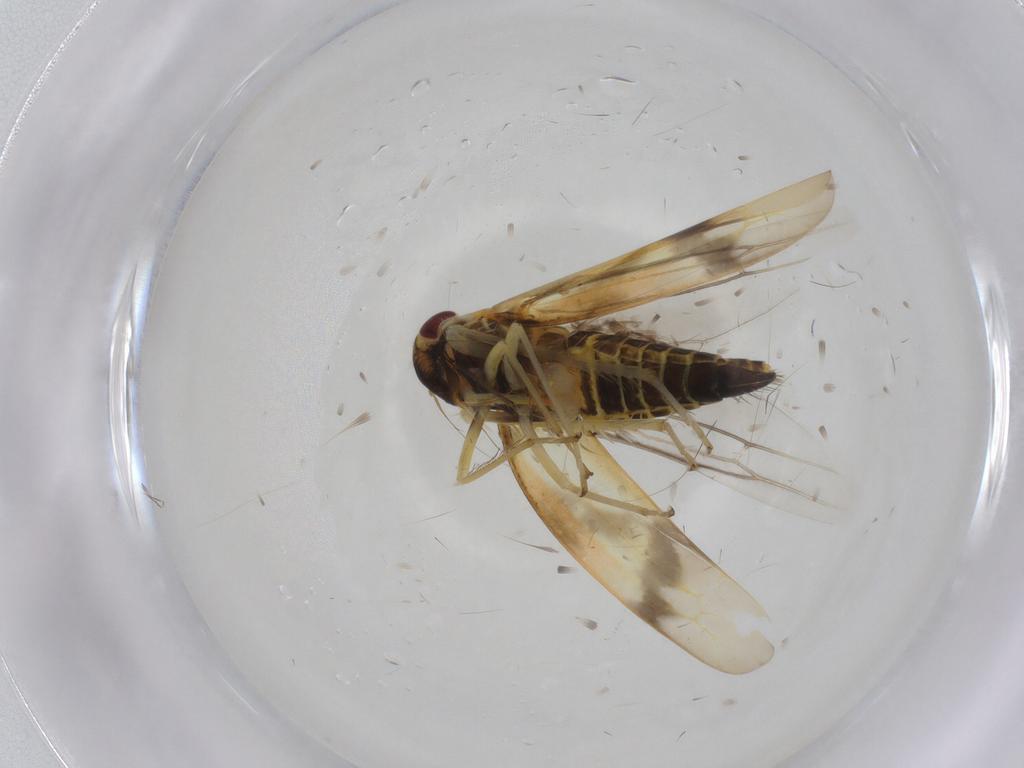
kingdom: Animalia
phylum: Arthropoda
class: Insecta
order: Hemiptera
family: Cicadellidae
